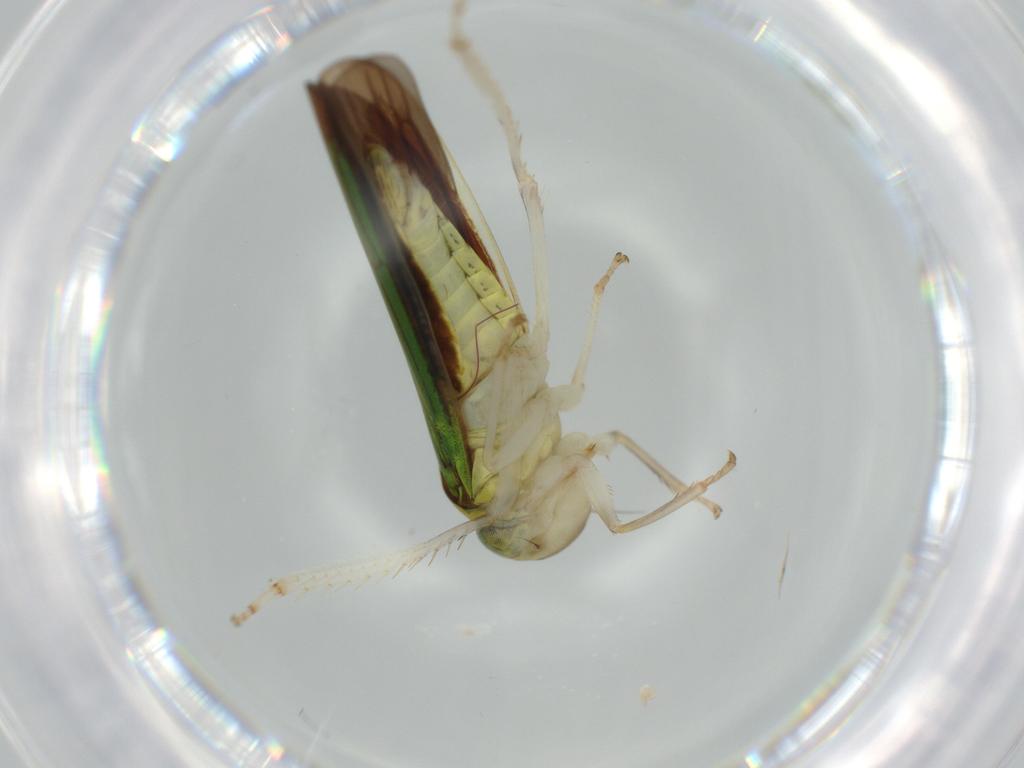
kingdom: Animalia
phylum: Arthropoda
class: Insecta
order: Hemiptera
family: Cicadellidae
